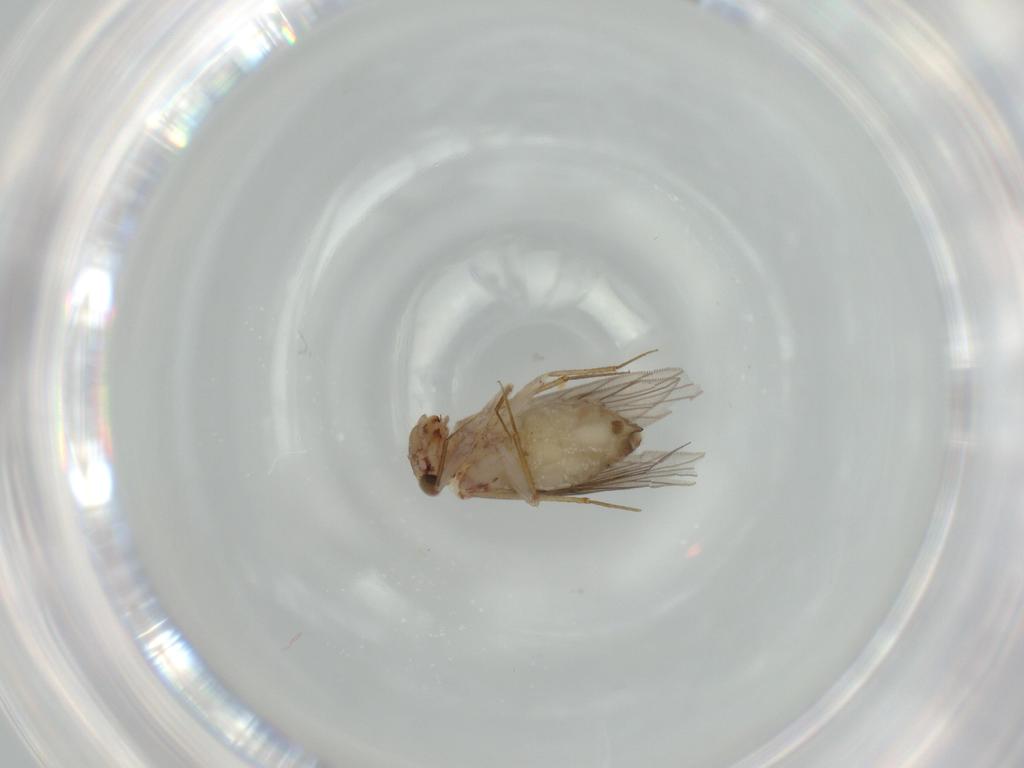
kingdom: Animalia
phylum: Arthropoda
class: Insecta
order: Psocodea
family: Lepidopsocidae
